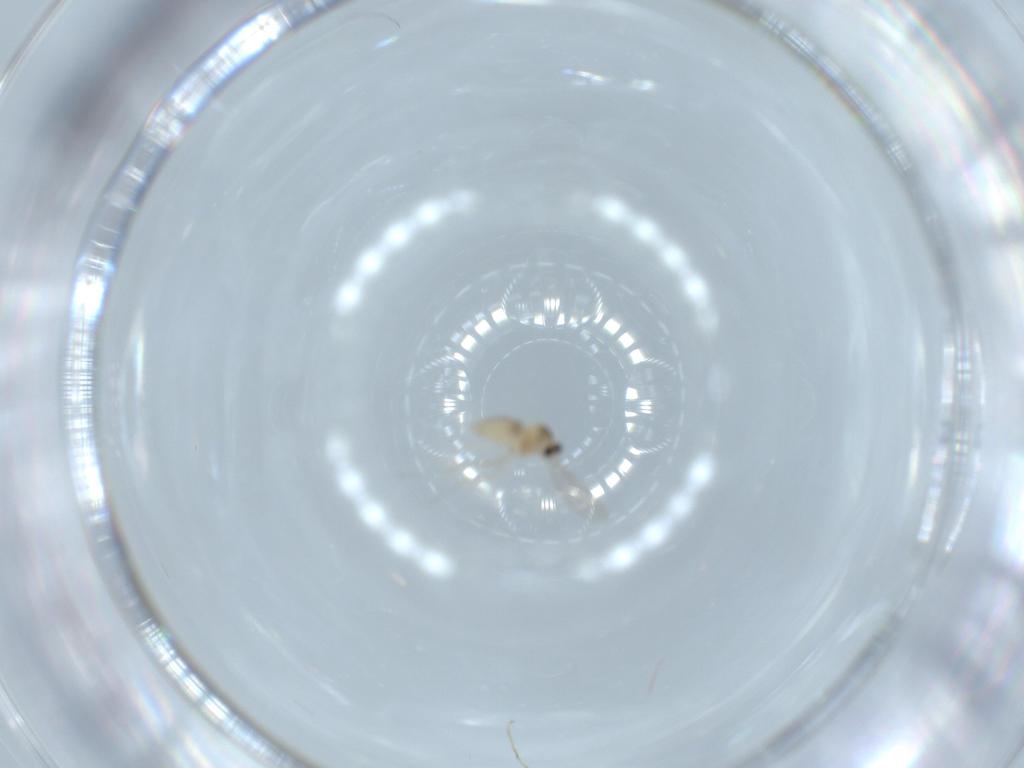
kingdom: Animalia
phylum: Arthropoda
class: Insecta
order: Diptera
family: Cecidomyiidae
